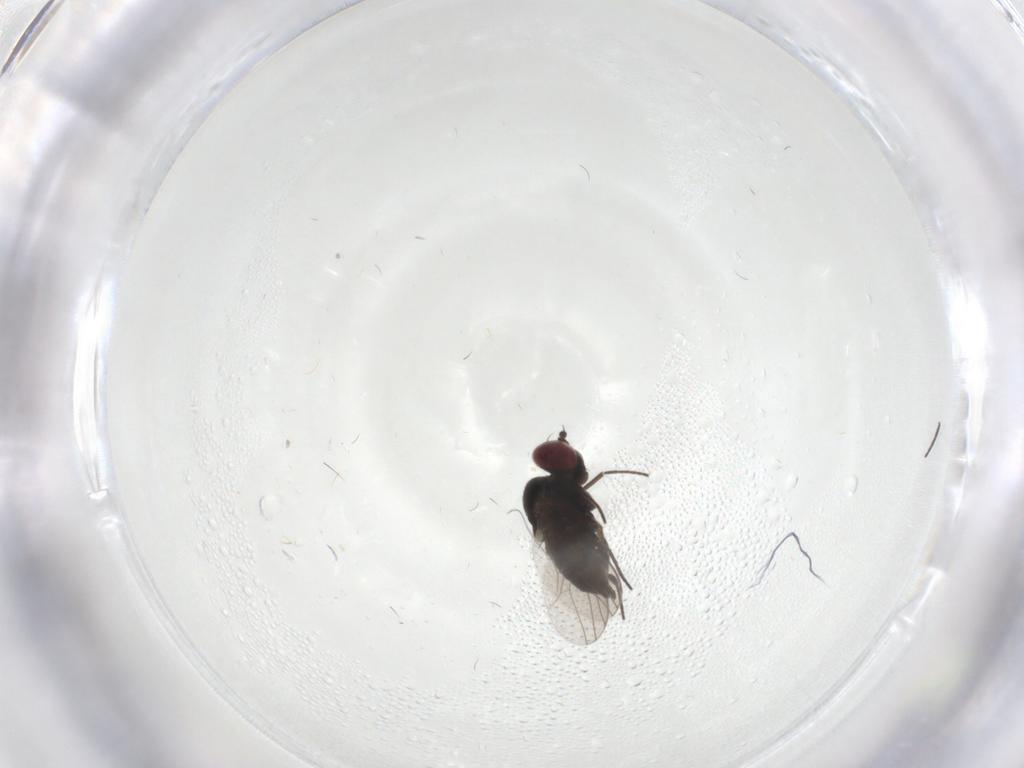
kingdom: Animalia
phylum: Arthropoda
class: Insecta
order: Diptera
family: Dolichopodidae
